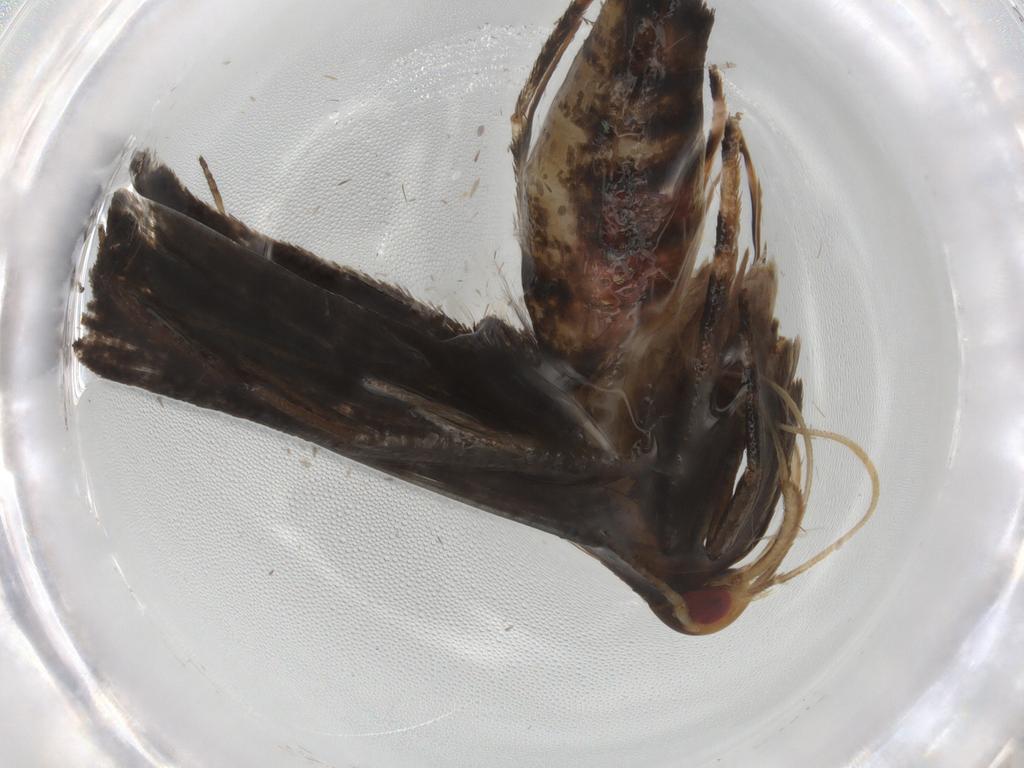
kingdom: Animalia
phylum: Arthropoda
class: Insecta
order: Lepidoptera
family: Gelechiidae
